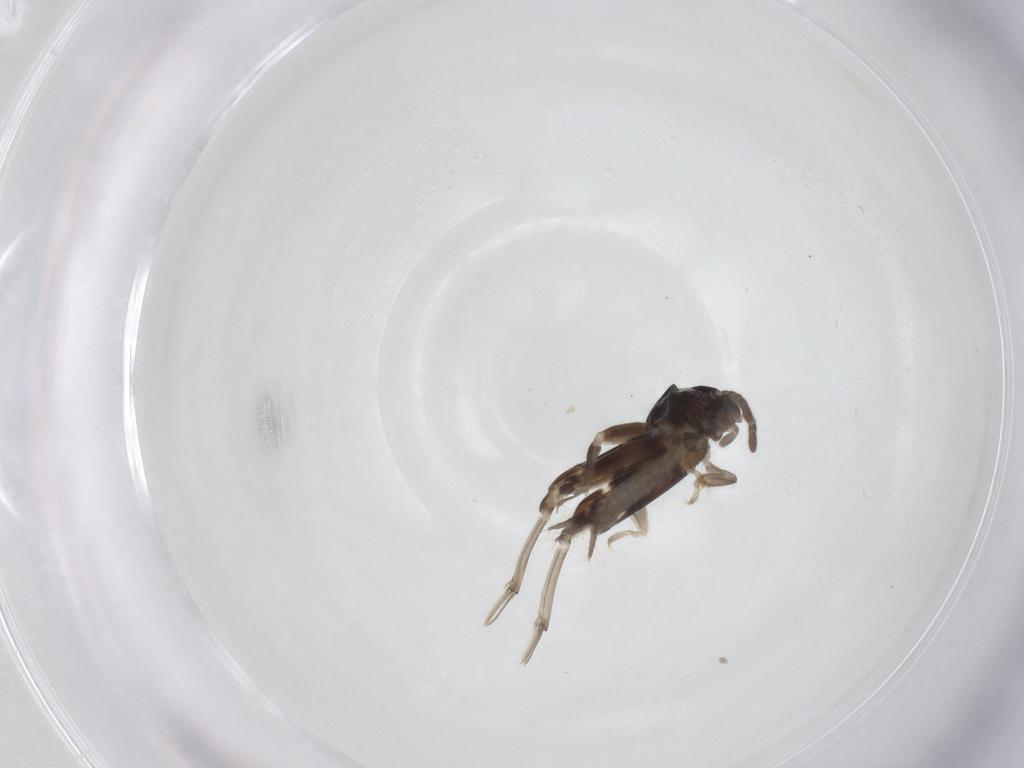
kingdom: Animalia
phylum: Arthropoda
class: Insecta
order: Orthoptera
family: Tridactylidae
